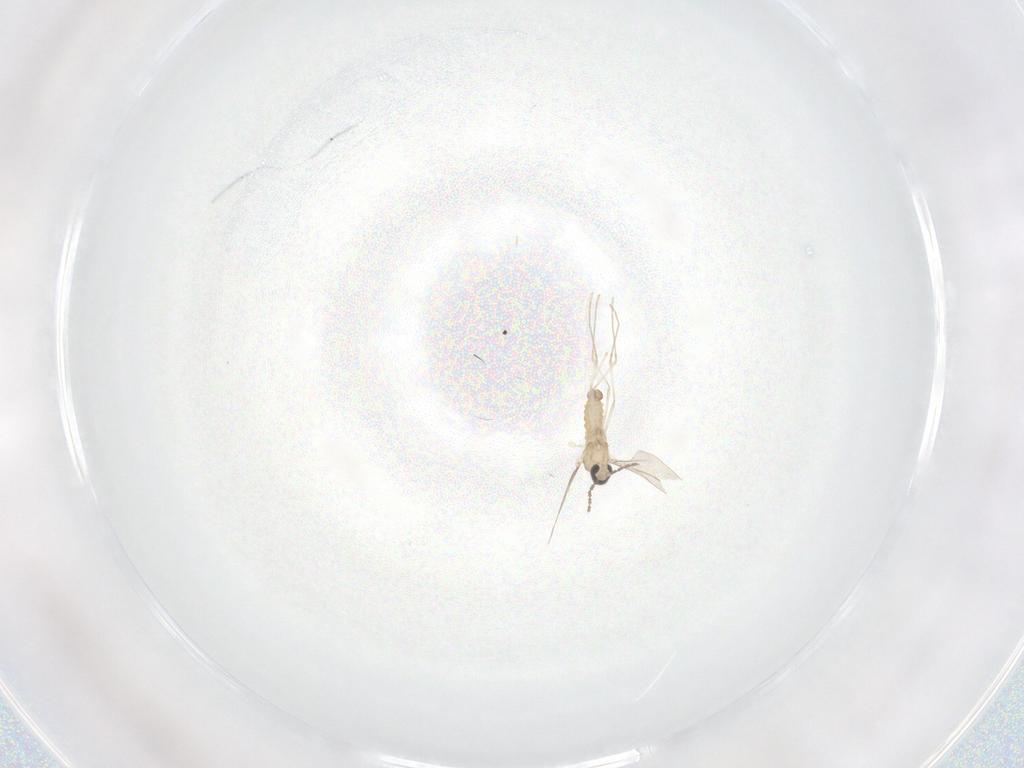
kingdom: Animalia
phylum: Arthropoda
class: Insecta
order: Diptera
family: Cecidomyiidae
